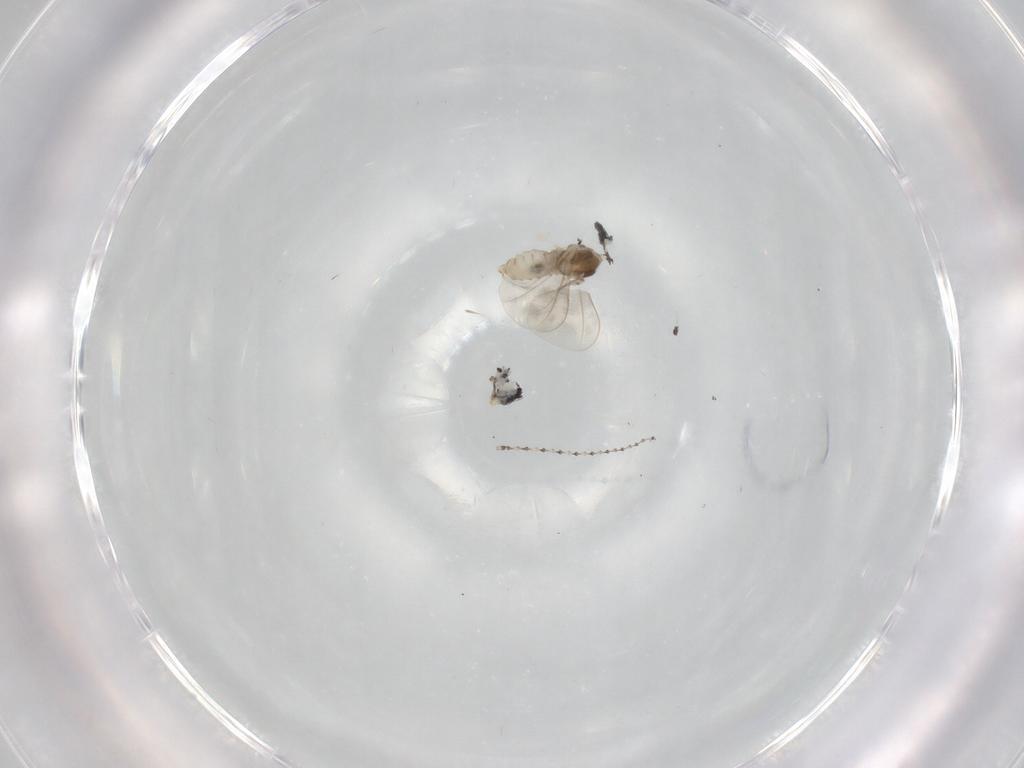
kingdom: Animalia
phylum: Arthropoda
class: Insecta
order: Diptera
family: Cecidomyiidae
